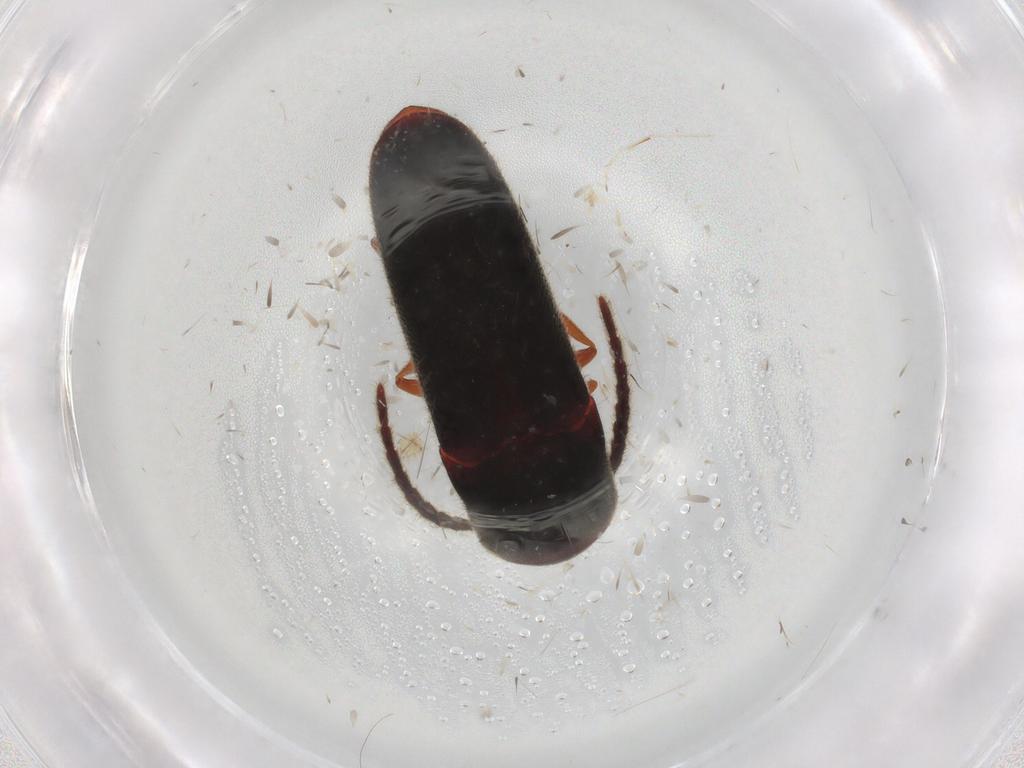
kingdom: Animalia
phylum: Arthropoda
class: Insecta
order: Coleoptera
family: Eucnemidae
